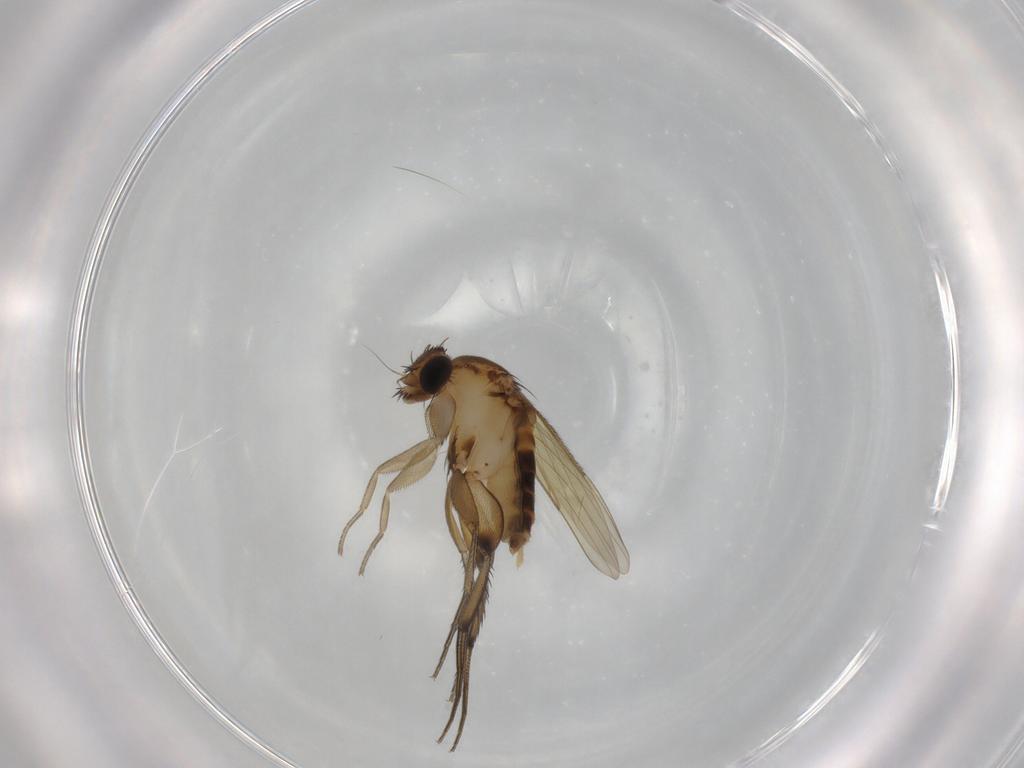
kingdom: Animalia
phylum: Arthropoda
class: Insecta
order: Diptera
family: Phoridae
